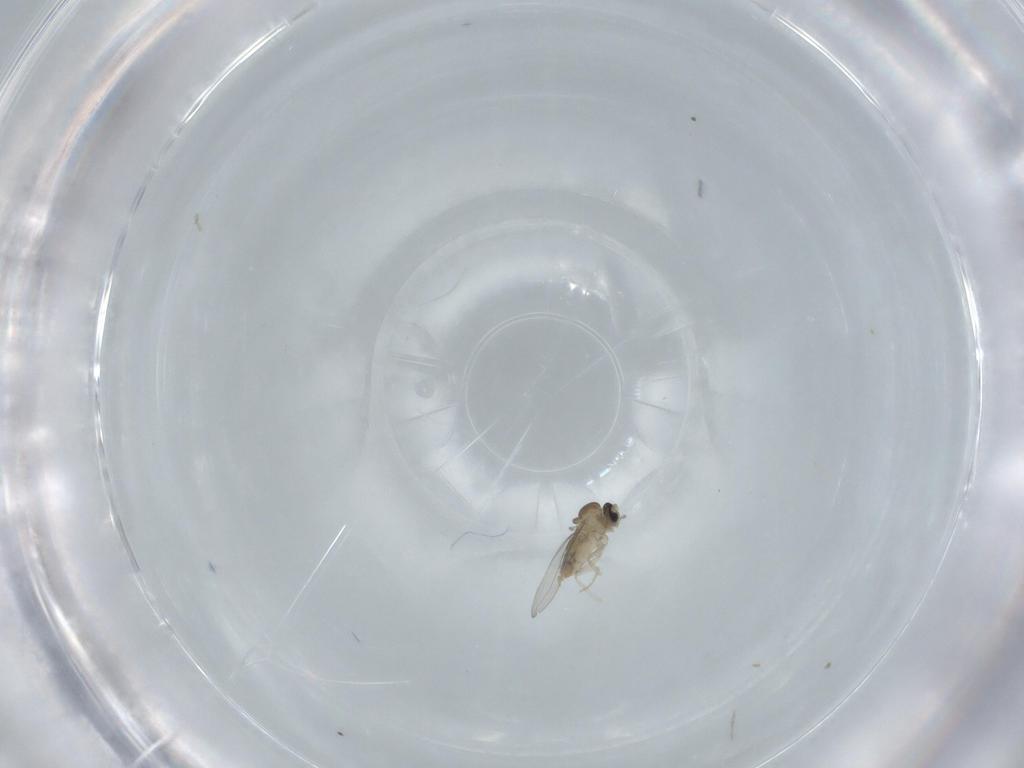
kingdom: Animalia
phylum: Arthropoda
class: Insecta
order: Diptera
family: Cecidomyiidae
